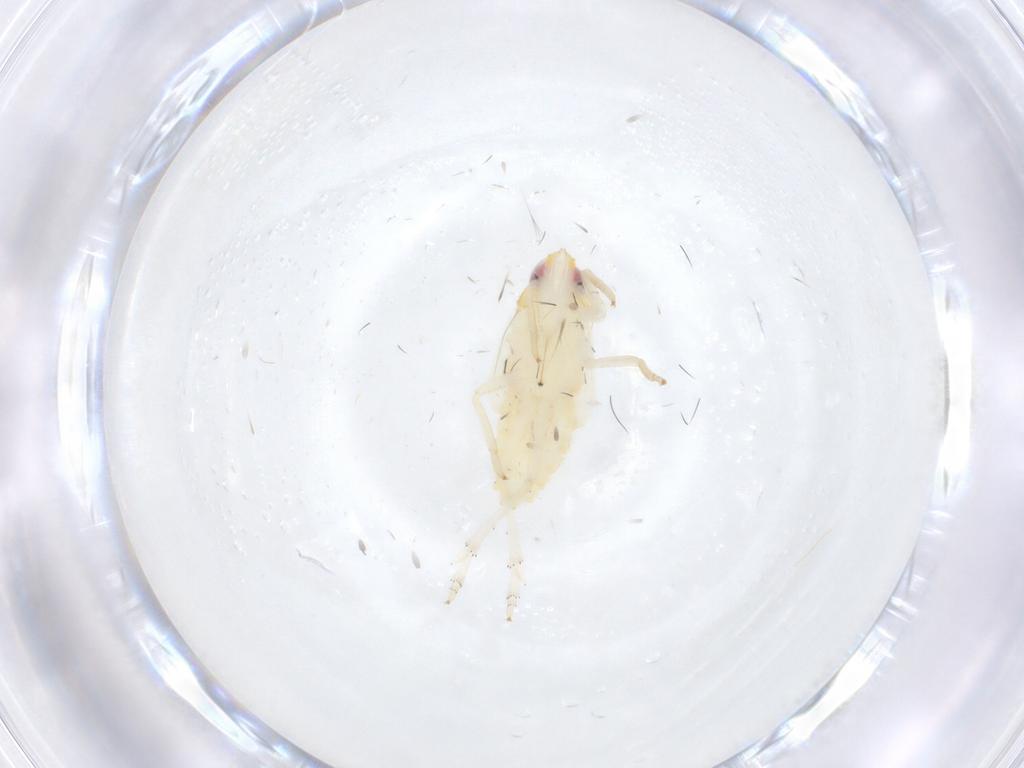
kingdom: Animalia
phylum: Arthropoda
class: Insecta
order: Hemiptera
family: Delphacidae
